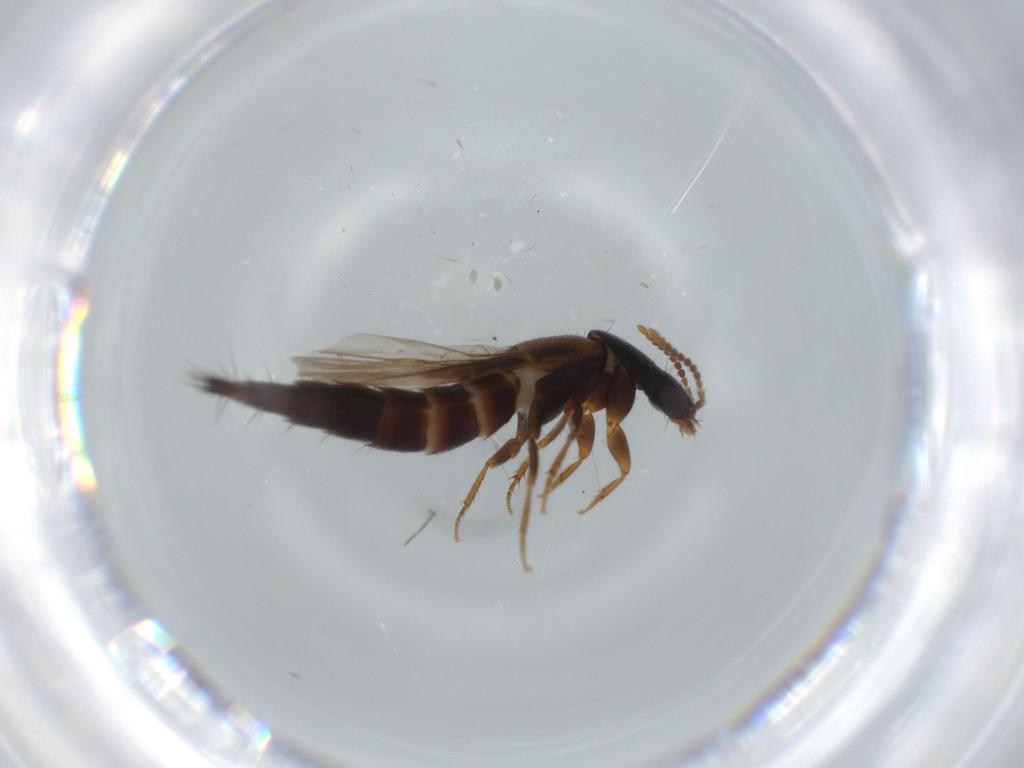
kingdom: Animalia
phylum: Arthropoda
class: Insecta
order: Coleoptera
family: Staphylinidae
